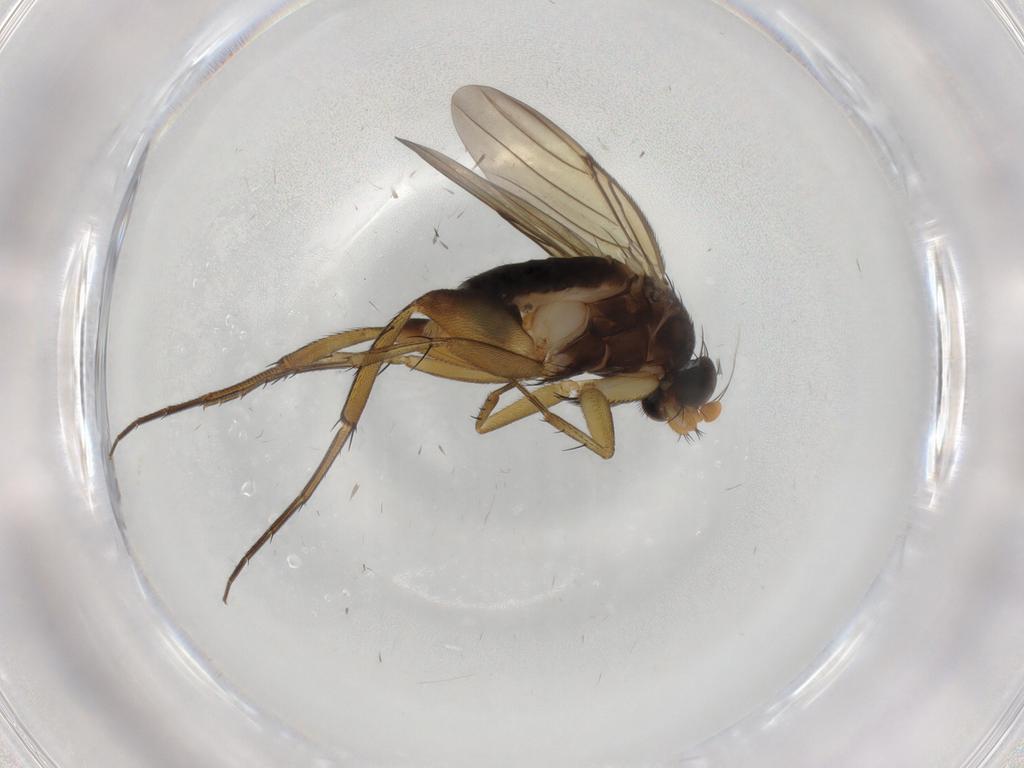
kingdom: Animalia
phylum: Arthropoda
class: Insecta
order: Diptera
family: Phoridae
